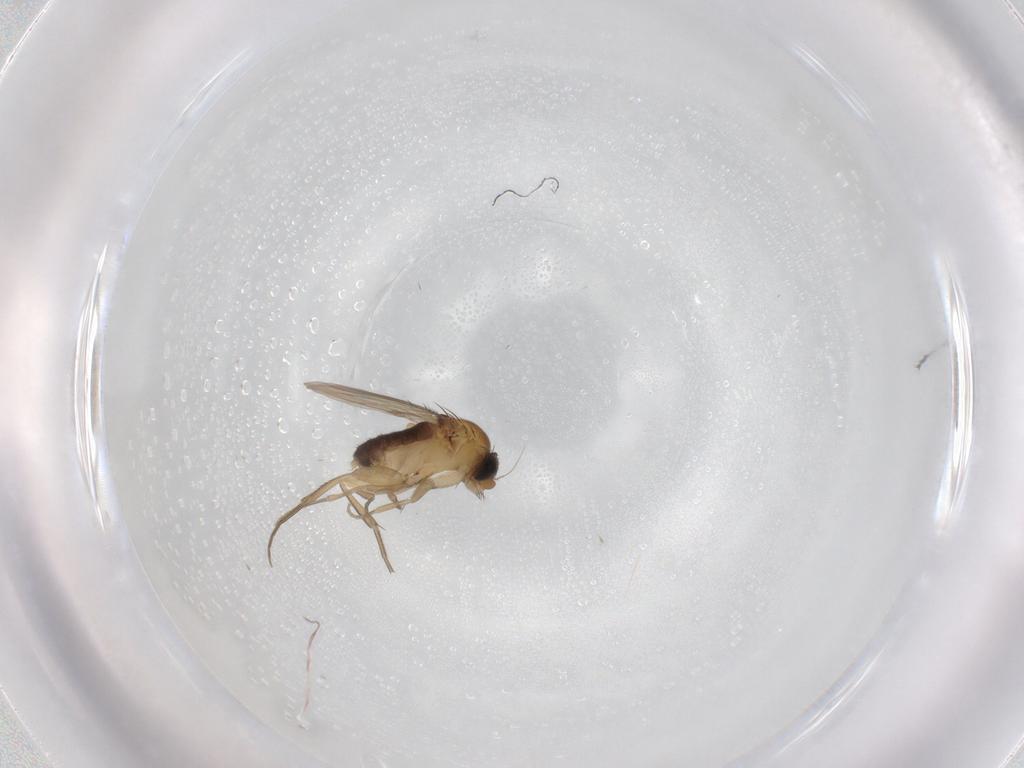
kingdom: Animalia
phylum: Arthropoda
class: Insecta
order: Diptera
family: Phoridae
